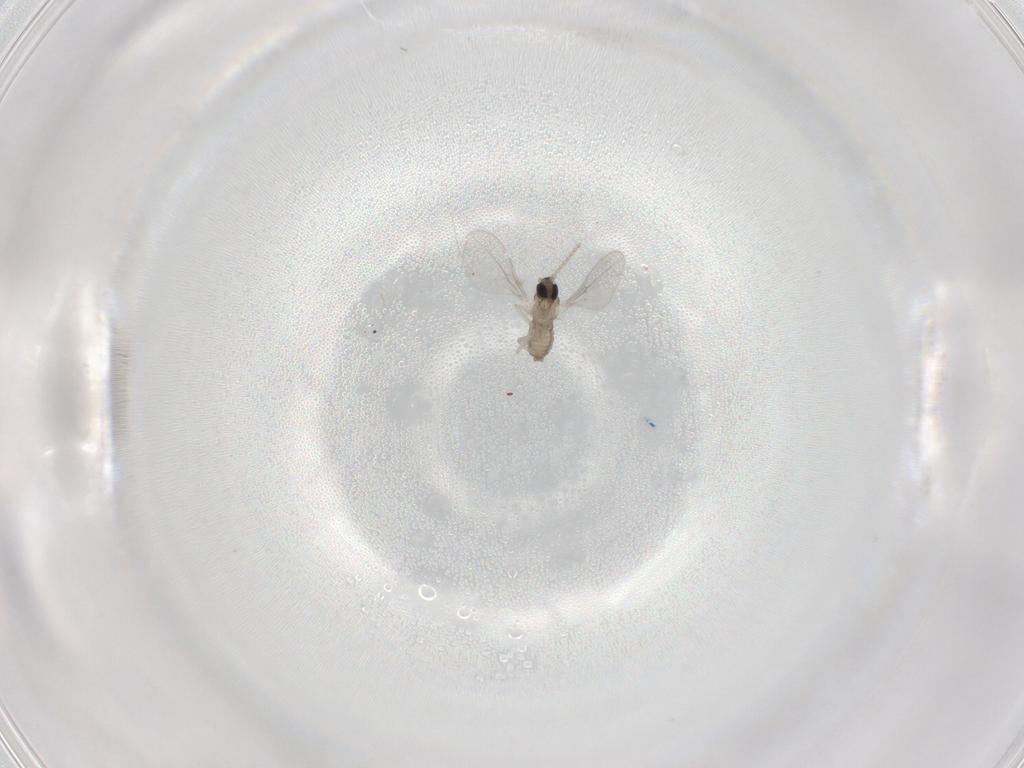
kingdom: Animalia
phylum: Arthropoda
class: Insecta
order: Diptera
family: Cecidomyiidae
